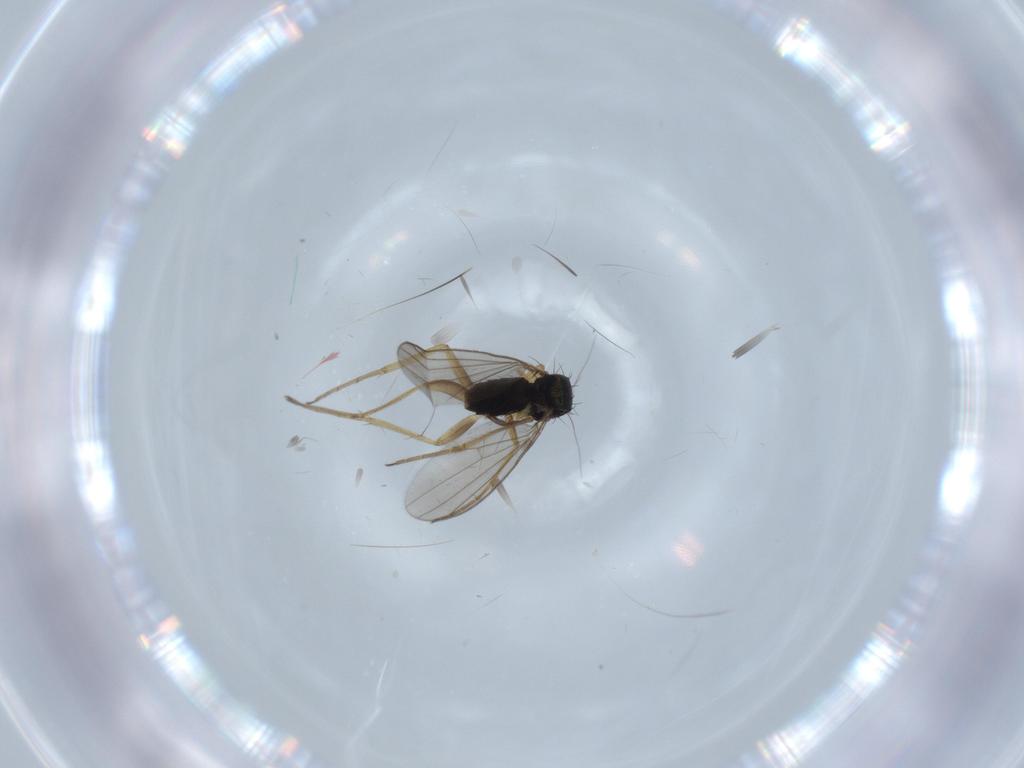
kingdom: Animalia
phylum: Arthropoda
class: Insecta
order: Diptera
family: Dolichopodidae
